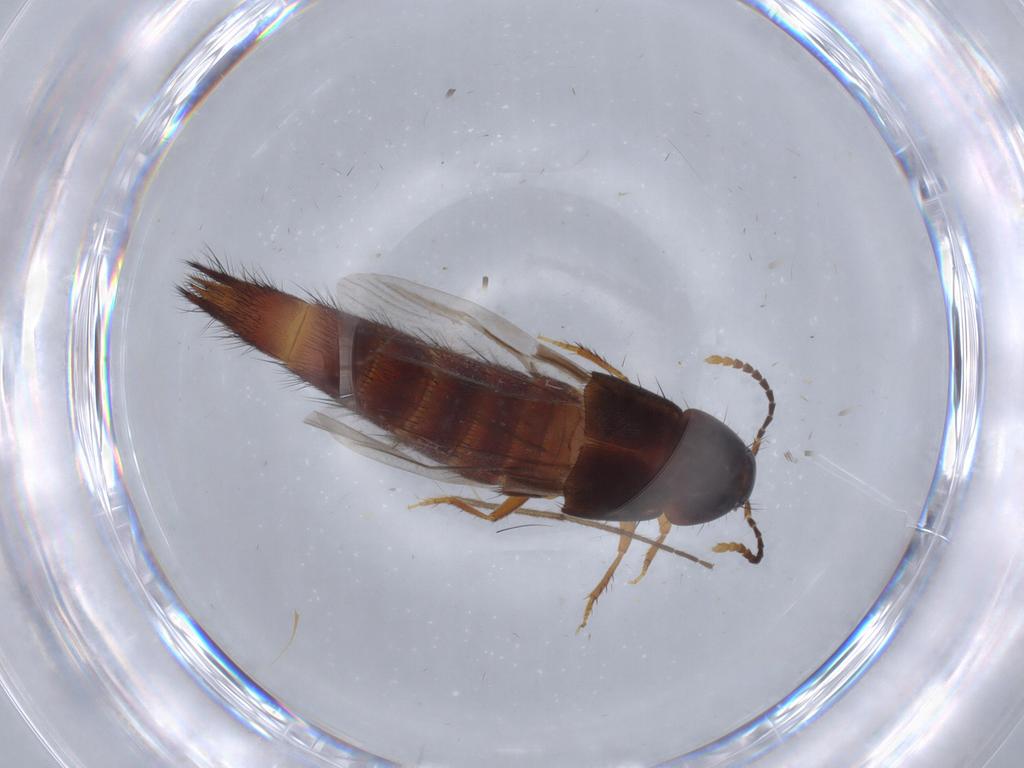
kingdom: Animalia
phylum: Arthropoda
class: Insecta
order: Coleoptera
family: Staphylinidae
